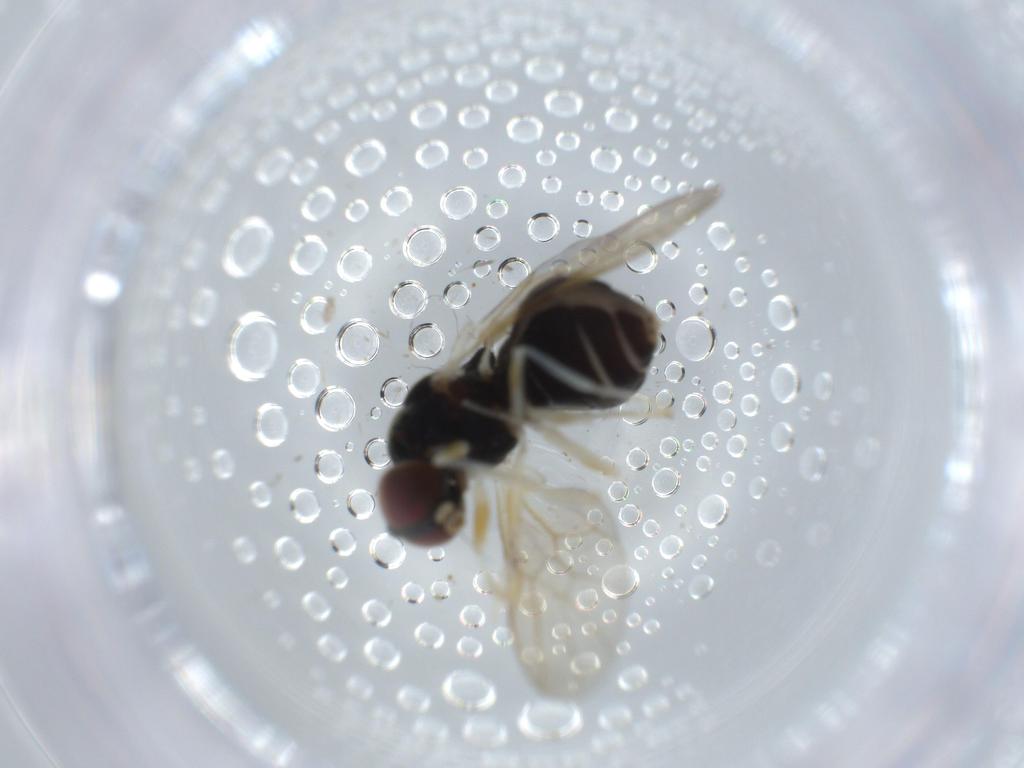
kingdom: Animalia
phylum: Arthropoda
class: Insecta
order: Diptera
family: Stratiomyidae
